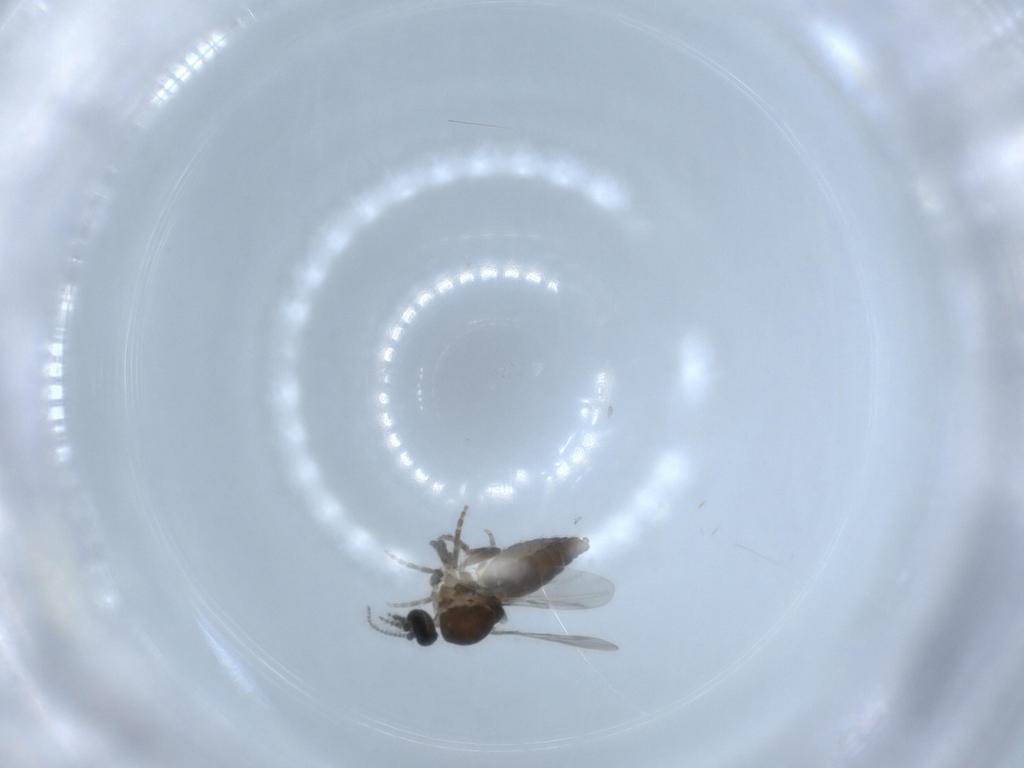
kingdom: Animalia
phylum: Arthropoda
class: Insecta
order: Diptera
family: Ceratopogonidae
